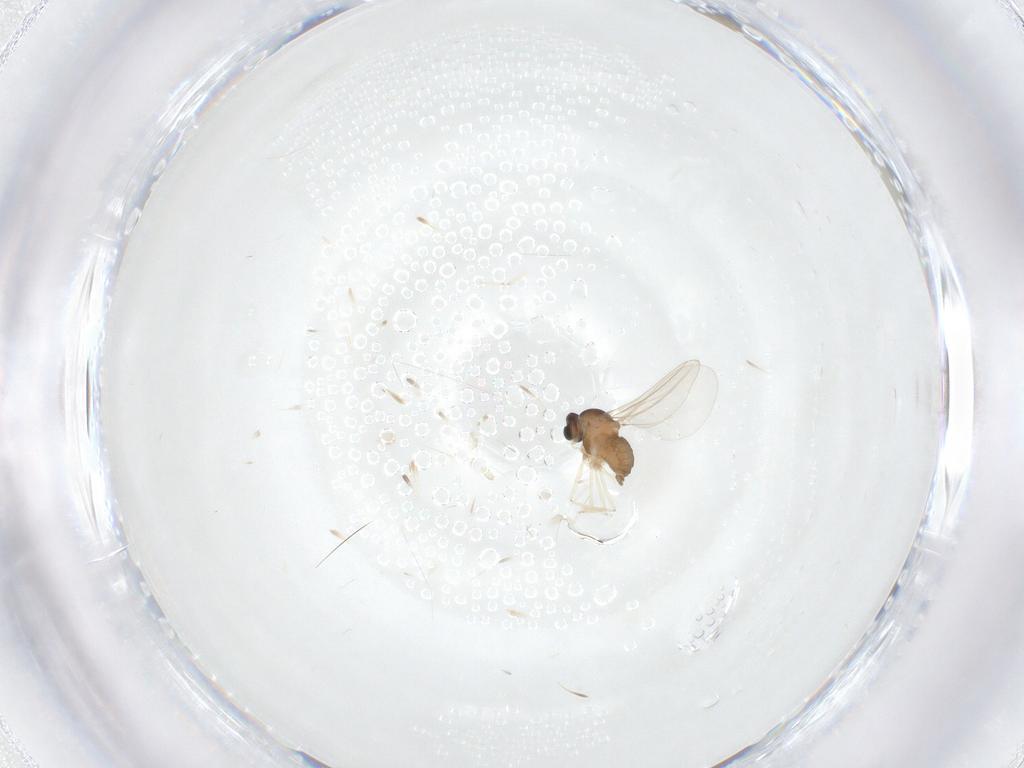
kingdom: Animalia
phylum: Arthropoda
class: Insecta
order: Diptera
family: Cecidomyiidae
